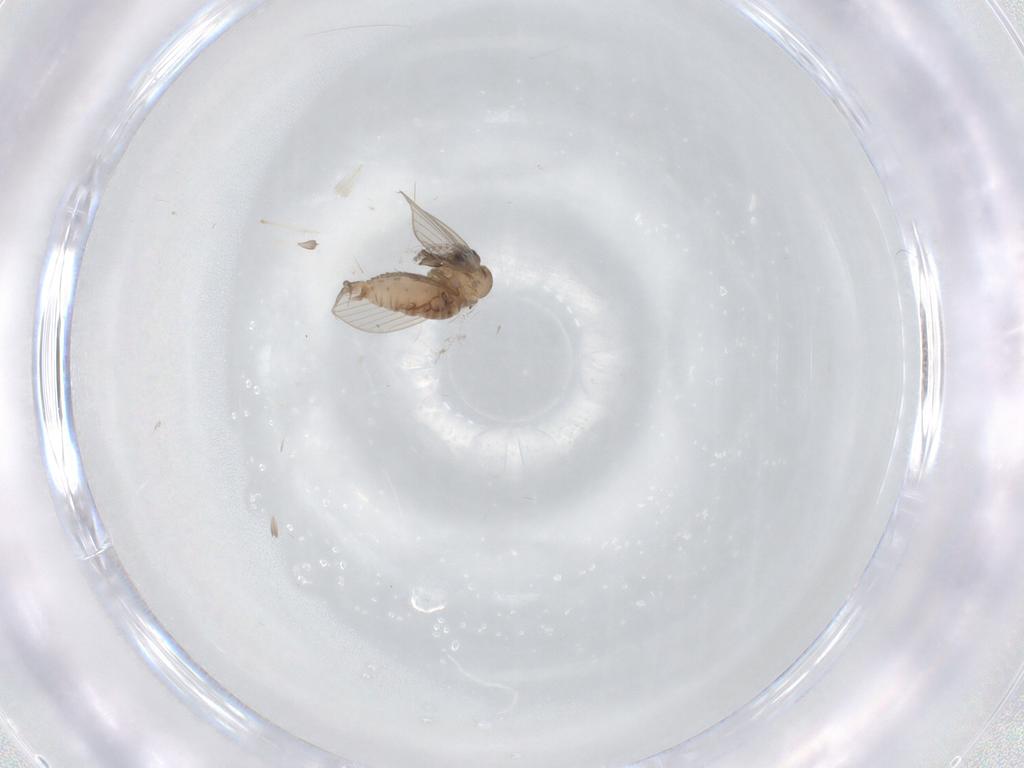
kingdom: Animalia
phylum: Arthropoda
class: Insecta
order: Diptera
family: Psychodidae
